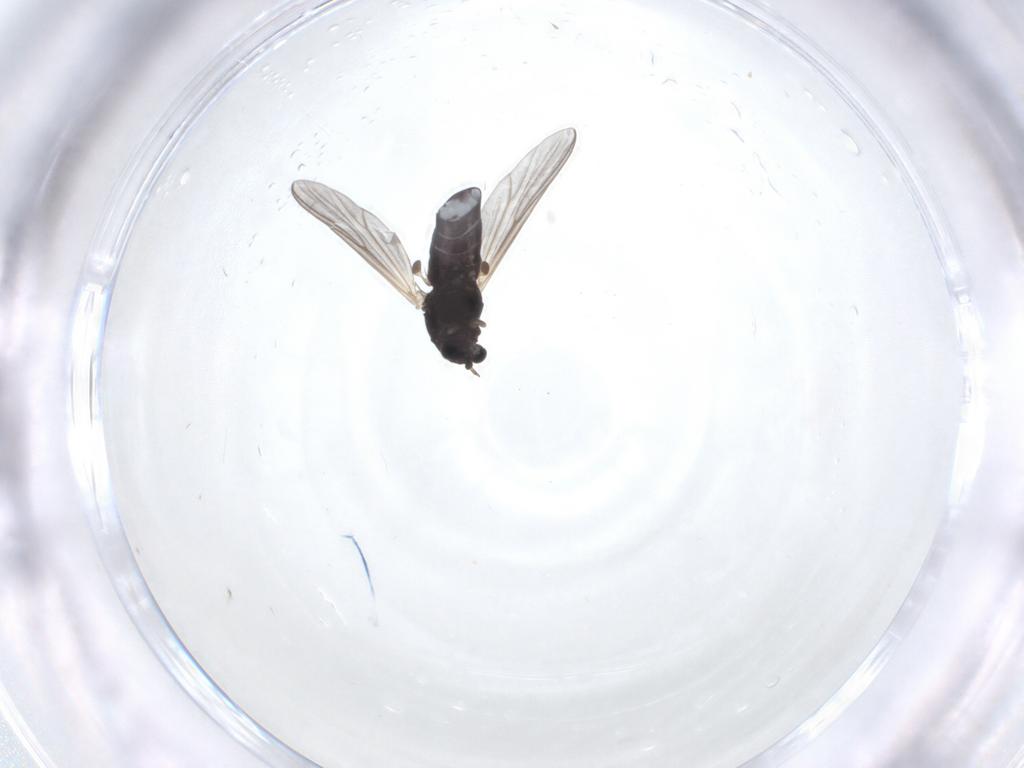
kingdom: Animalia
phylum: Arthropoda
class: Insecta
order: Diptera
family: Chironomidae
